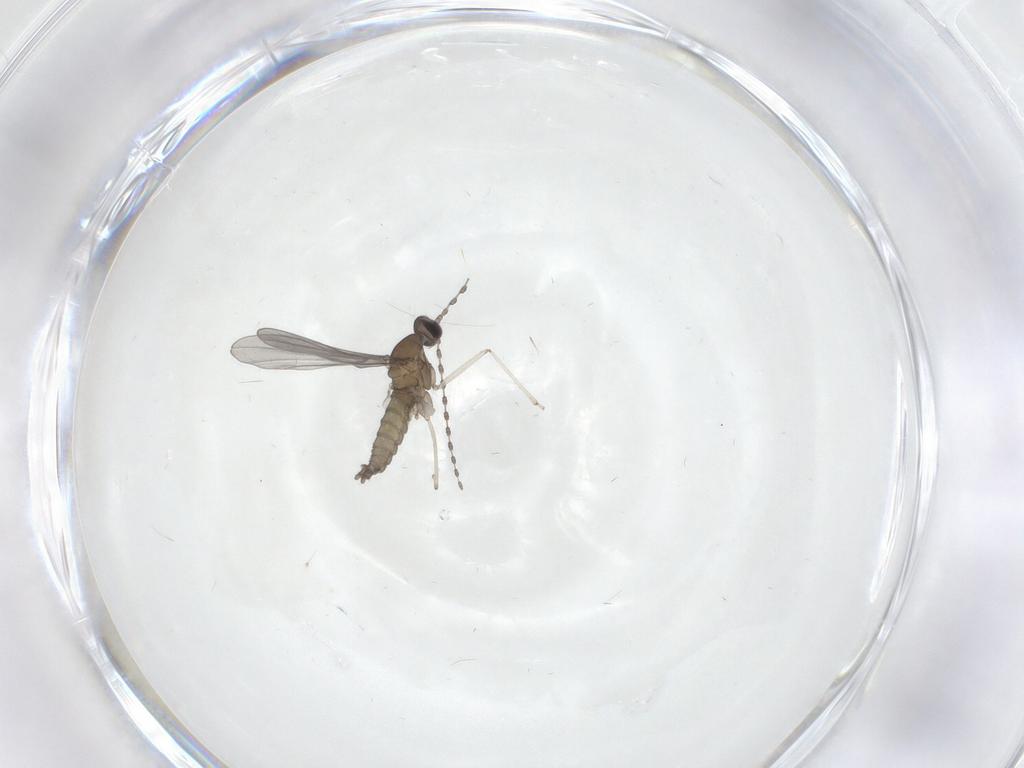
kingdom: Animalia
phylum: Arthropoda
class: Insecta
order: Diptera
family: Cecidomyiidae
